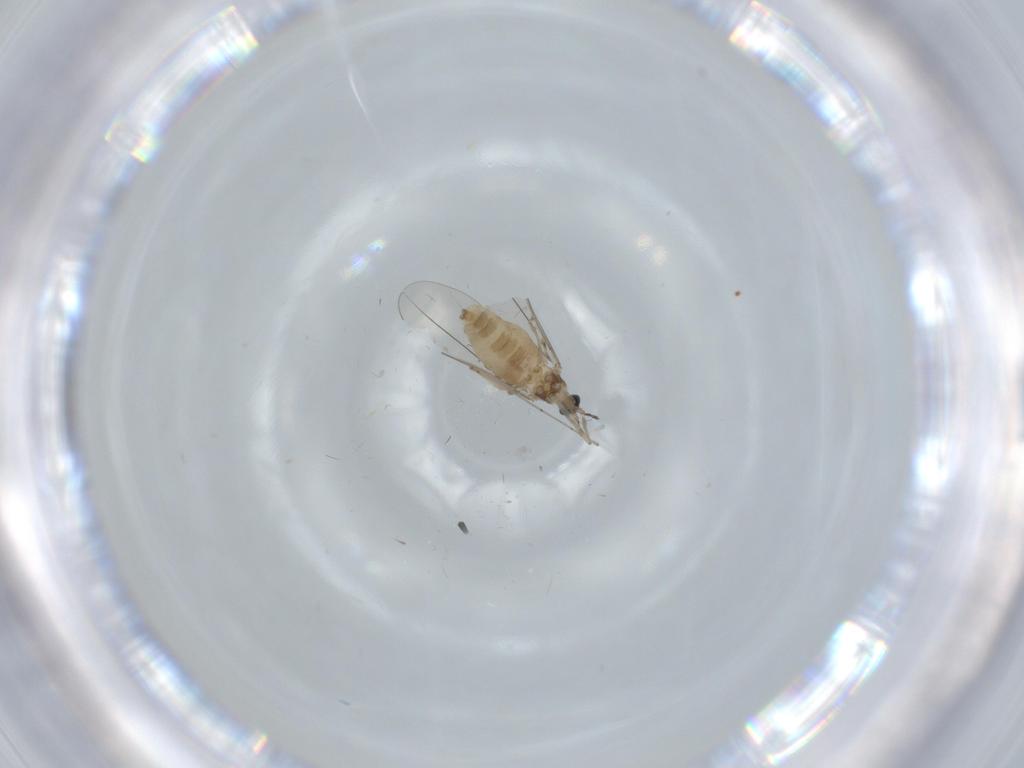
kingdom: Animalia
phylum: Arthropoda
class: Insecta
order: Diptera
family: Cecidomyiidae
